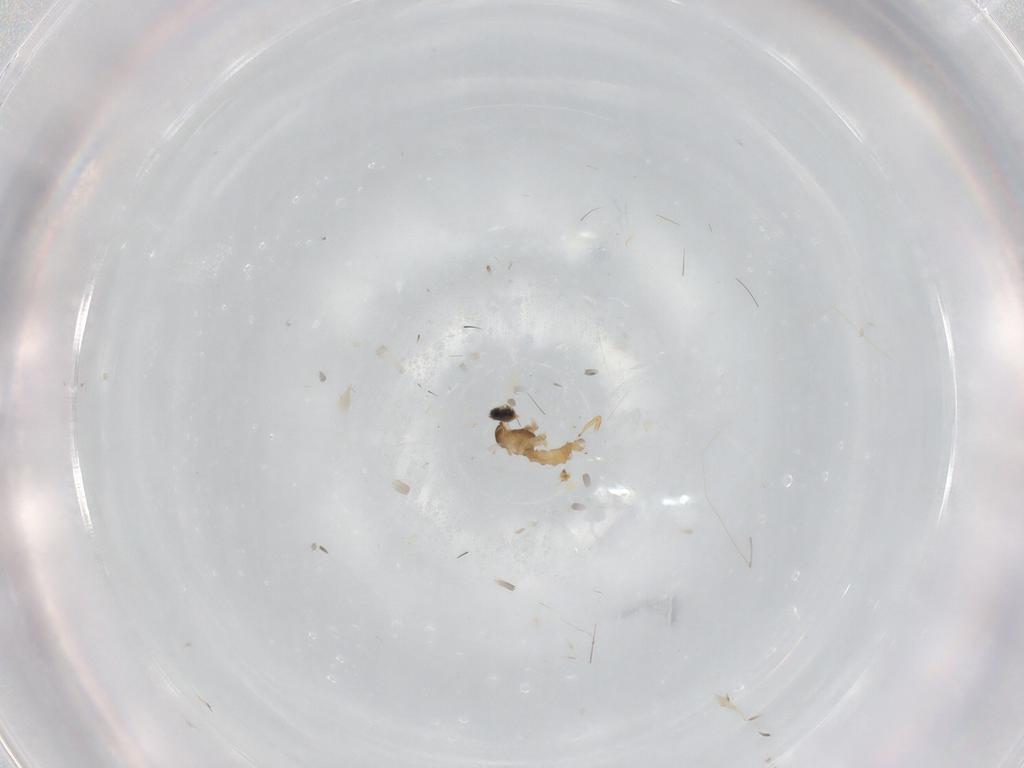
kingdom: Animalia
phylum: Arthropoda
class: Insecta
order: Diptera
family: Cecidomyiidae
